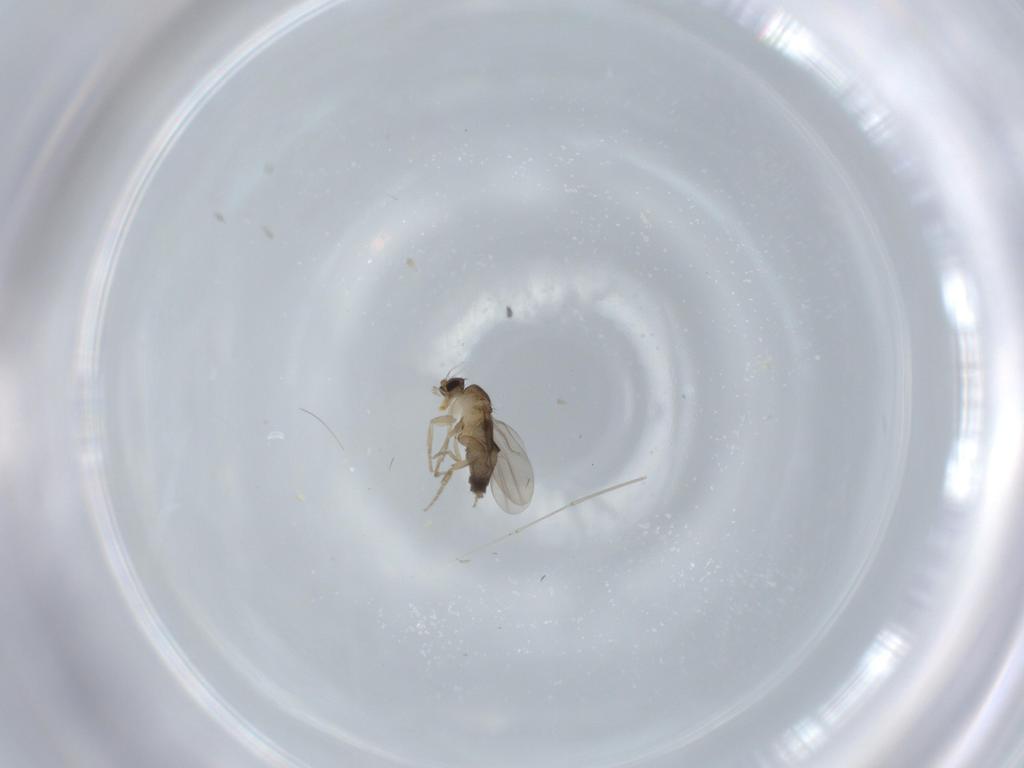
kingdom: Animalia
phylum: Arthropoda
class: Insecta
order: Diptera
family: Phoridae
